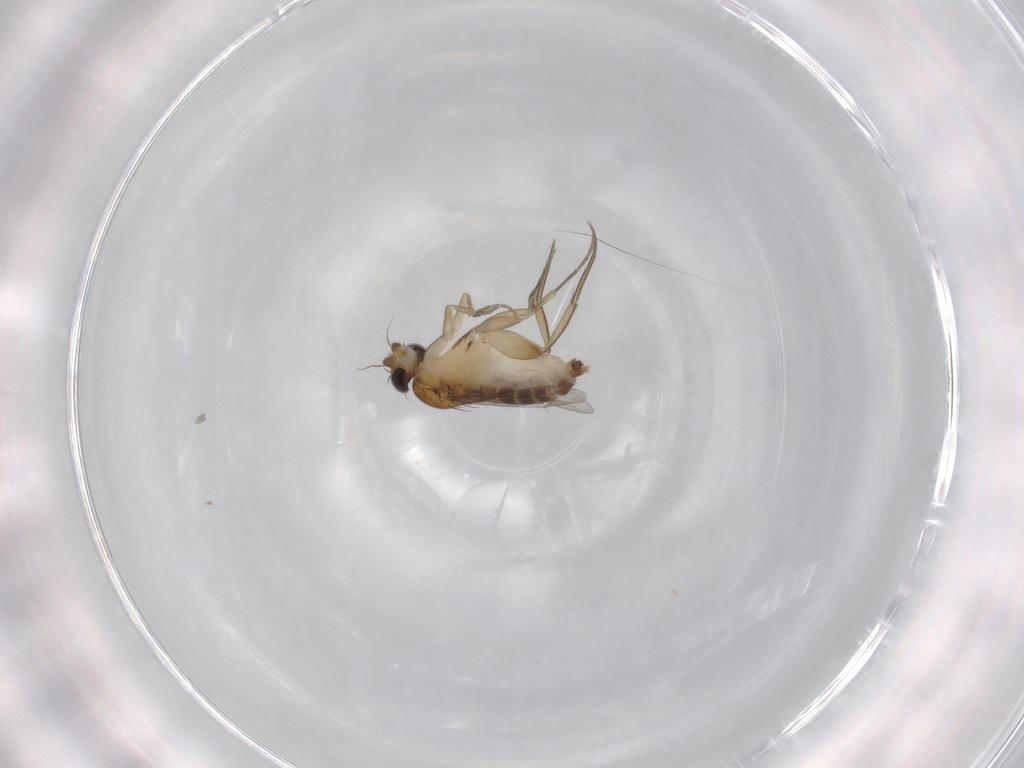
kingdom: Animalia
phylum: Arthropoda
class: Insecta
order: Diptera
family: Phoridae
